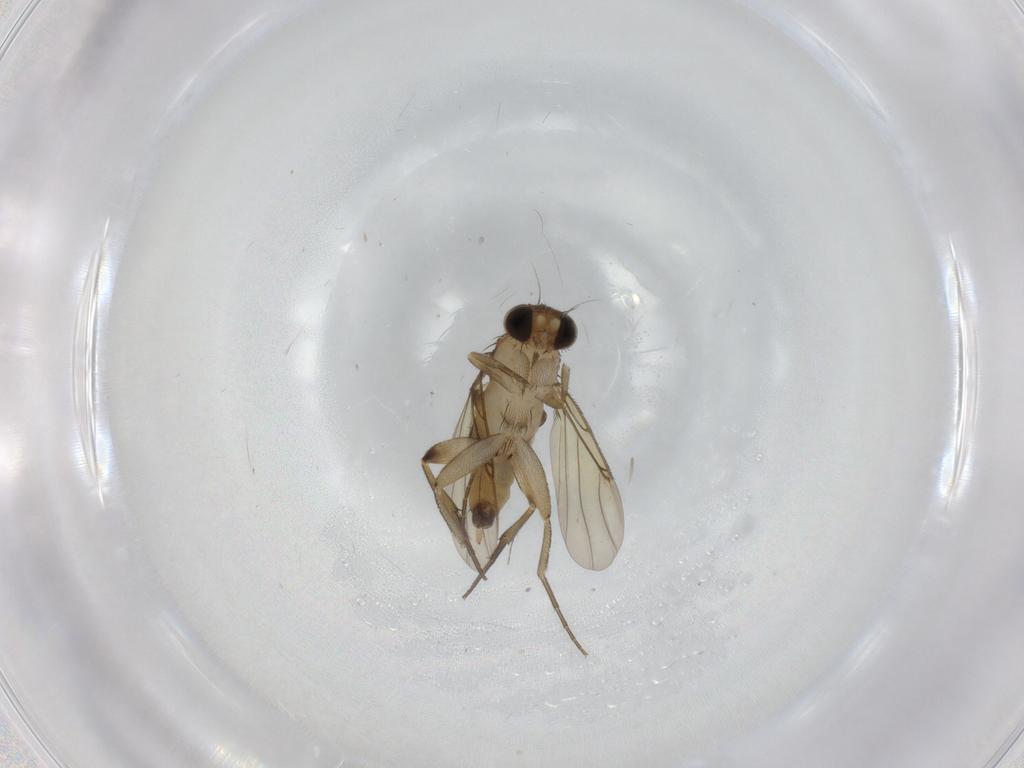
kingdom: Animalia
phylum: Arthropoda
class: Insecta
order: Diptera
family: Phoridae
